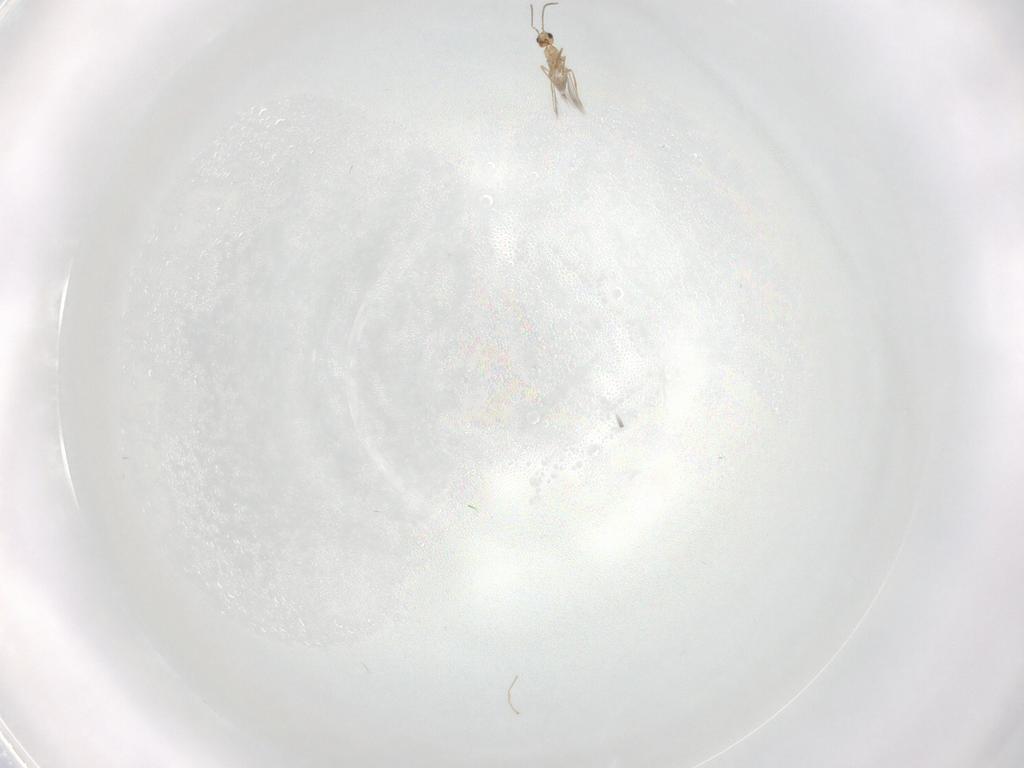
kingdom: Animalia
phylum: Arthropoda
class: Insecta
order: Hymenoptera
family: Mymaridae
